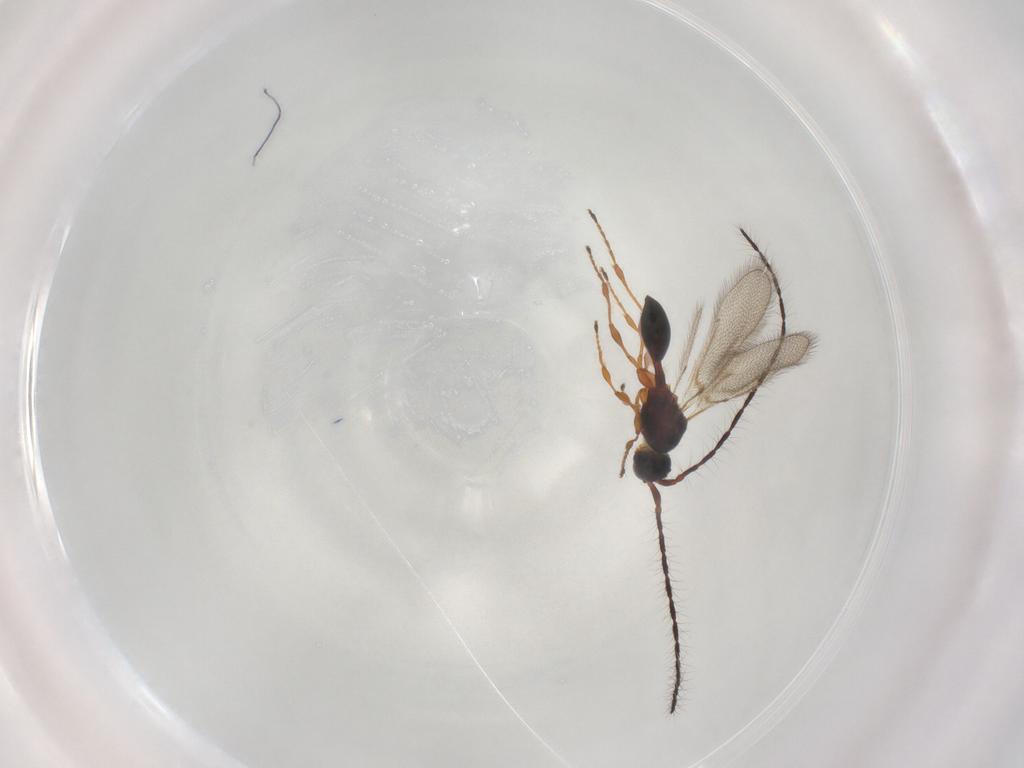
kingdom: Animalia
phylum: Arthropoda
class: Insecta
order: Hymenoptera
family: Diapriidae
